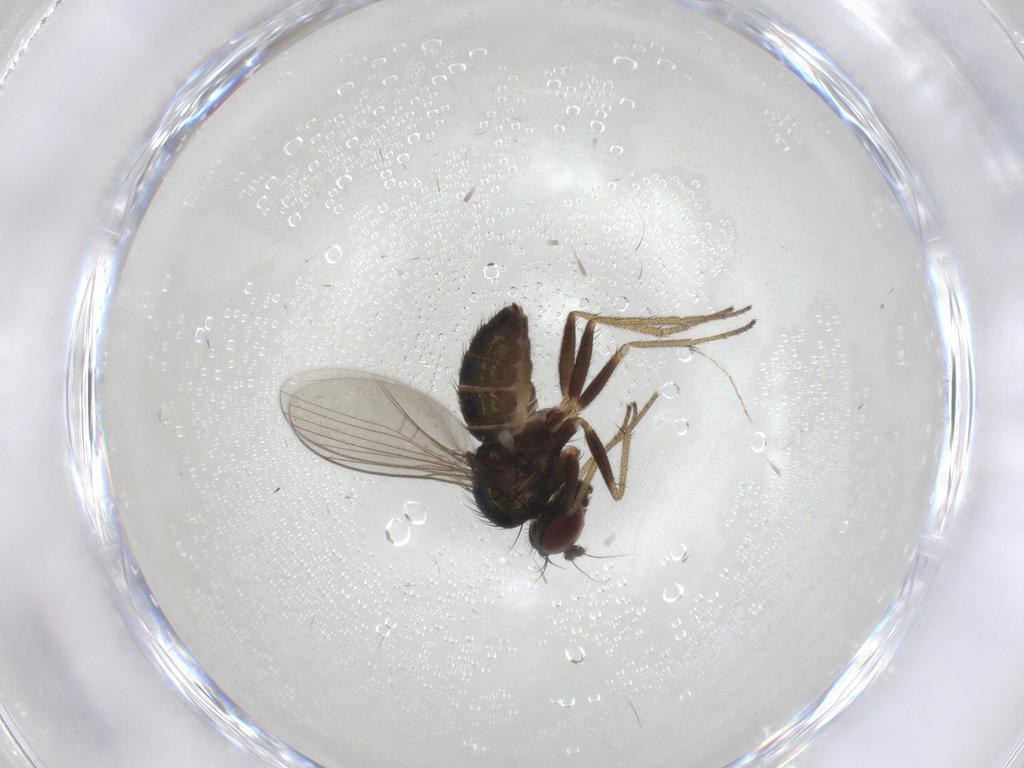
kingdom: Animalia
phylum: Arthropoda
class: Insecta
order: Diptera
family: Dolichopodidae
